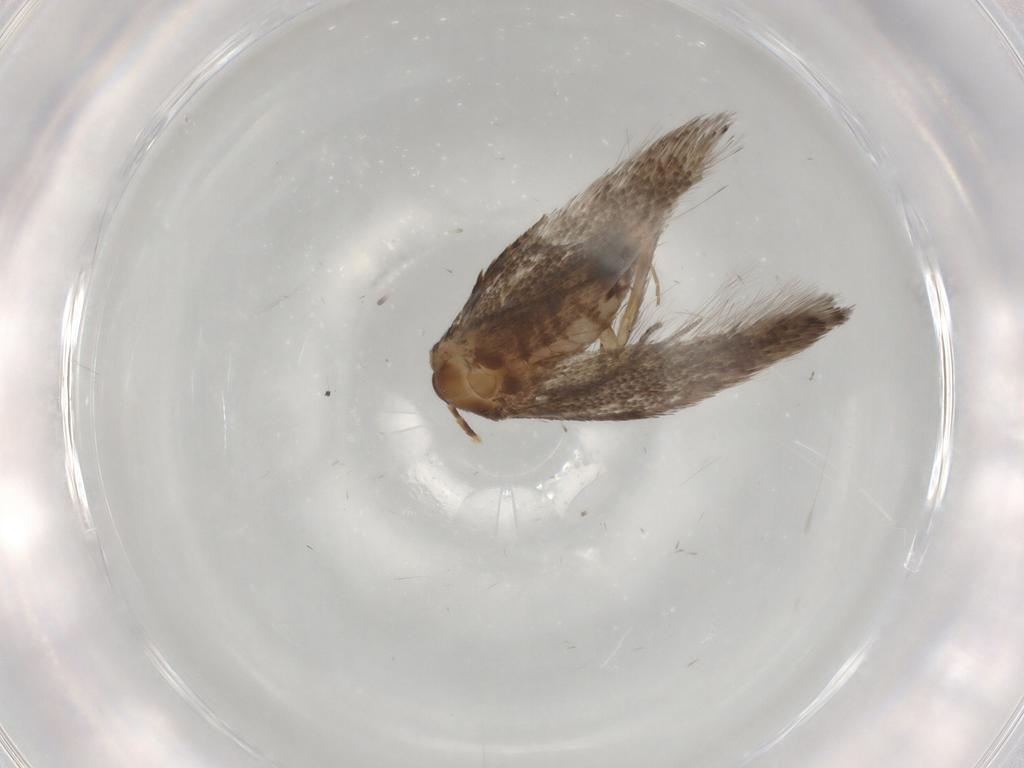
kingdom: Animalia
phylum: Arthropoda
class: Insecta
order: Lepidoptera
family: Elachistidae
